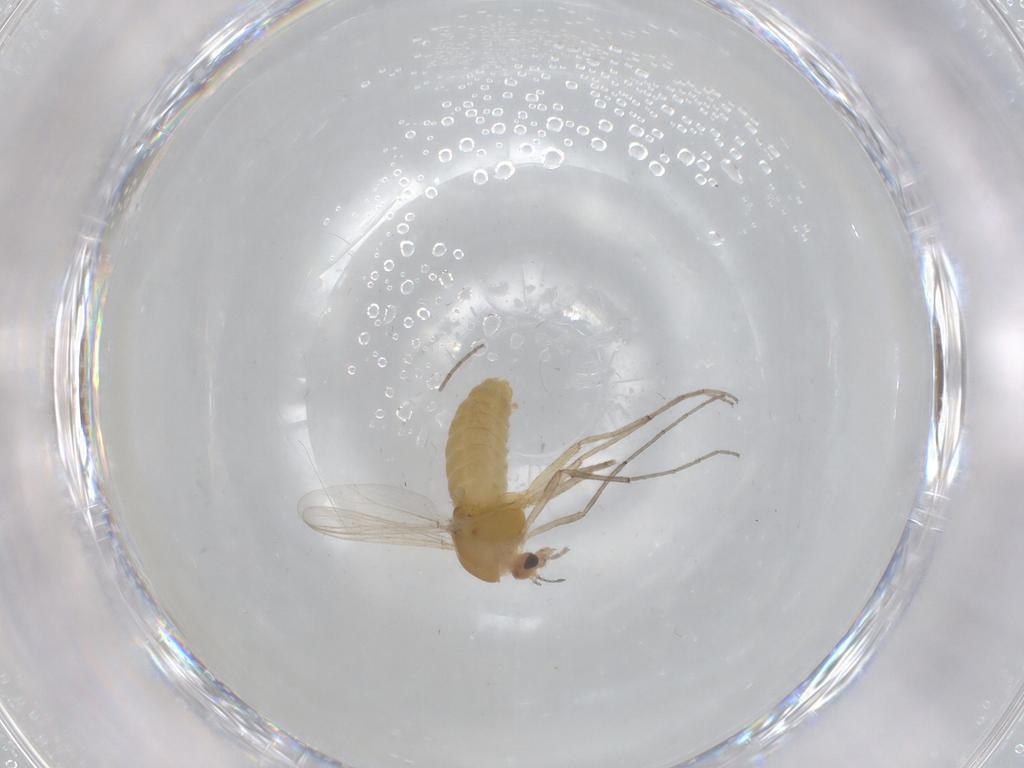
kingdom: Animalia
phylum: Arthropoda
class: Insecta
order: Diptera
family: Chironomidae
